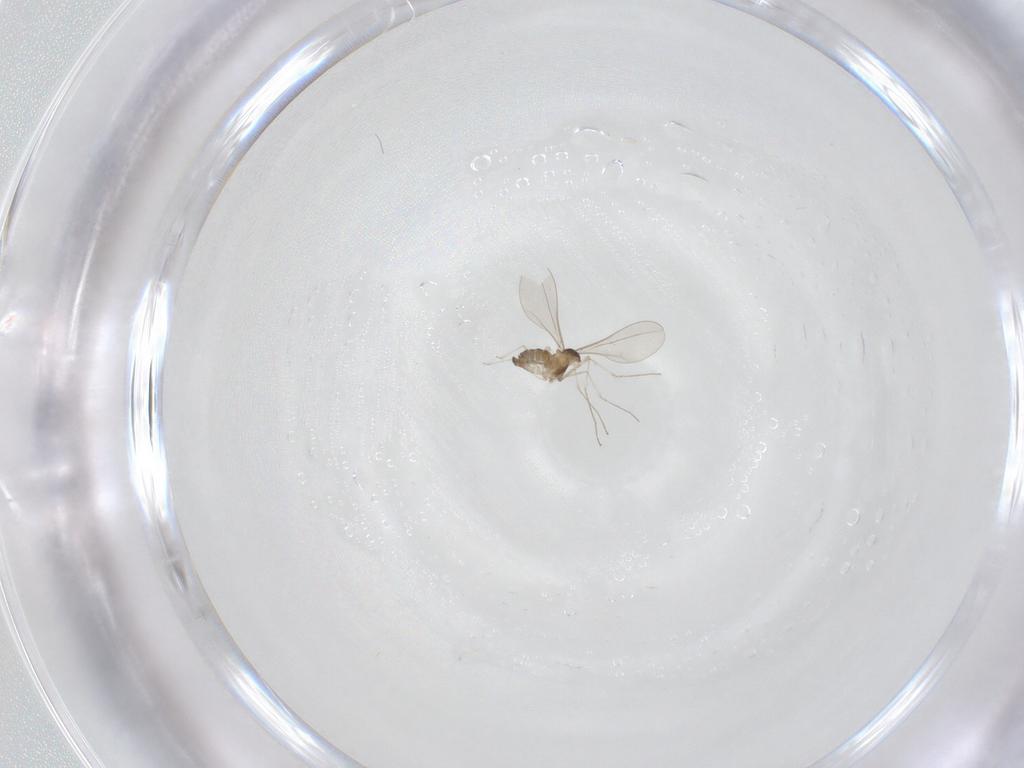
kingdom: Animalia
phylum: Arthropoda
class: Insecta
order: Diptera
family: Cecidomyiidae
